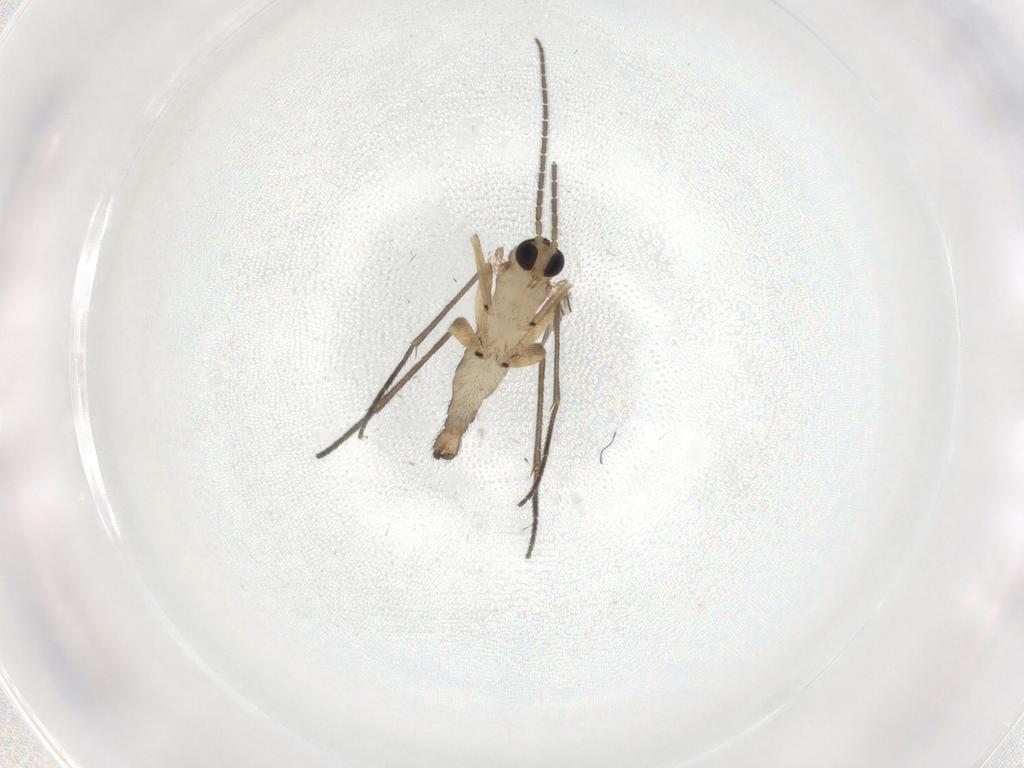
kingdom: Animalia
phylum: Arthropoda
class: Insecta
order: Diptera
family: Sciaridae
